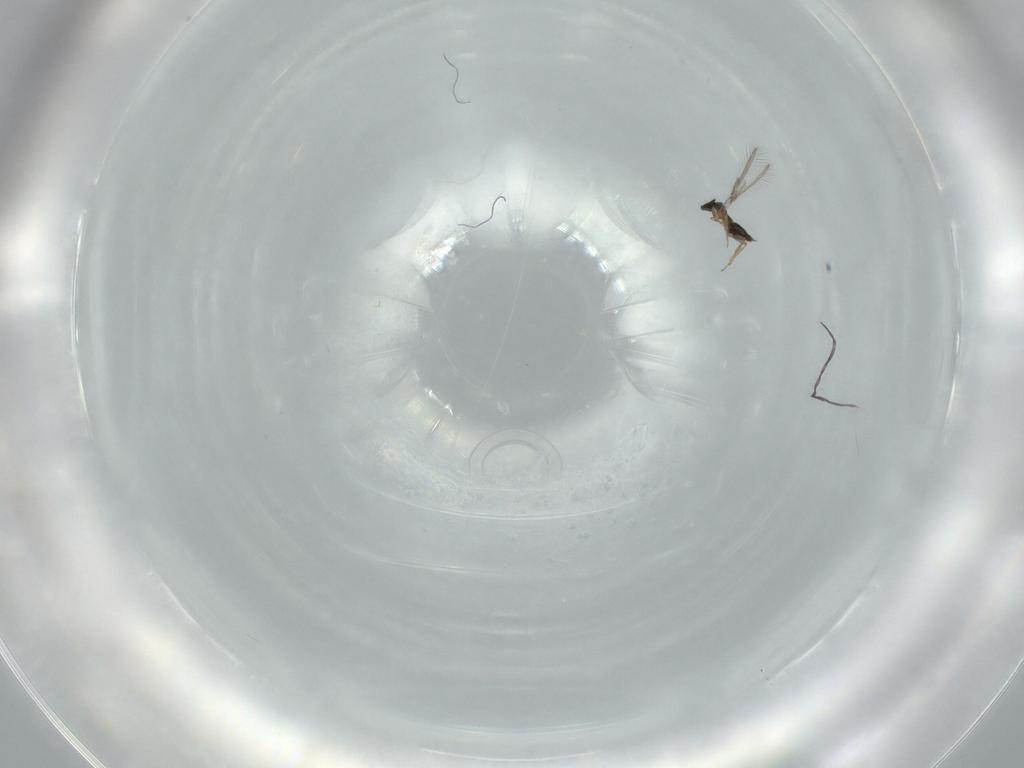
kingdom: Animalia
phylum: Arthropoda
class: Insecta
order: Hymenoptera
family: Mymaridae
